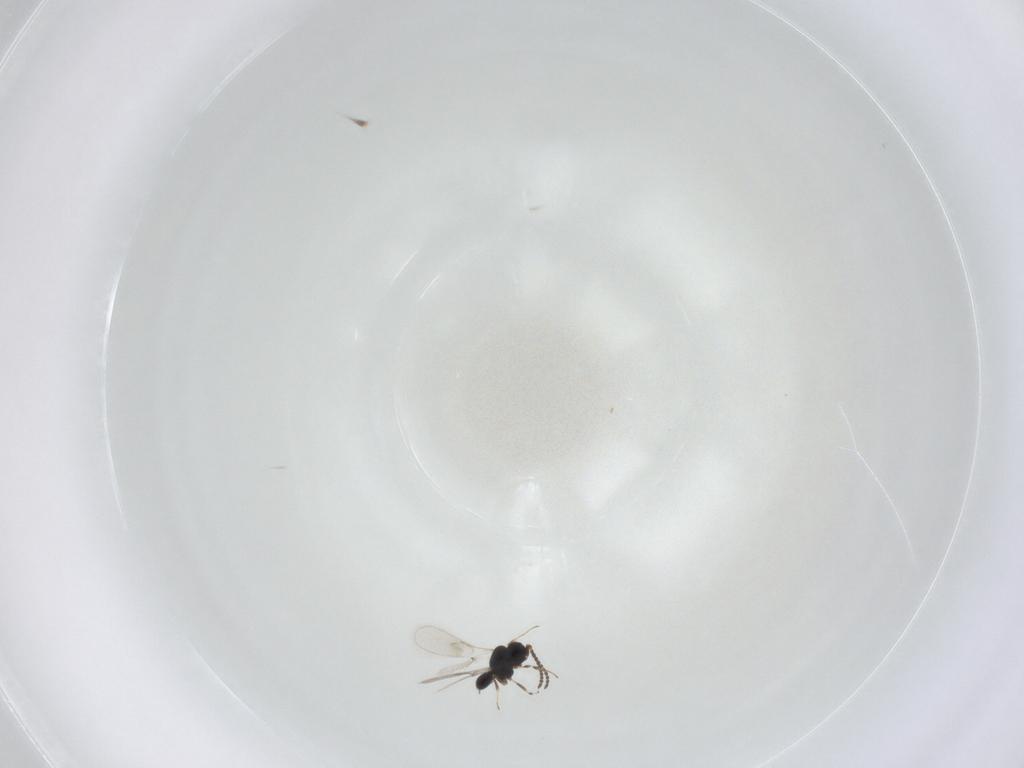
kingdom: Animalia
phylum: Arthropoda
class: Insecta
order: Hymenoptera
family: Scelionidae
